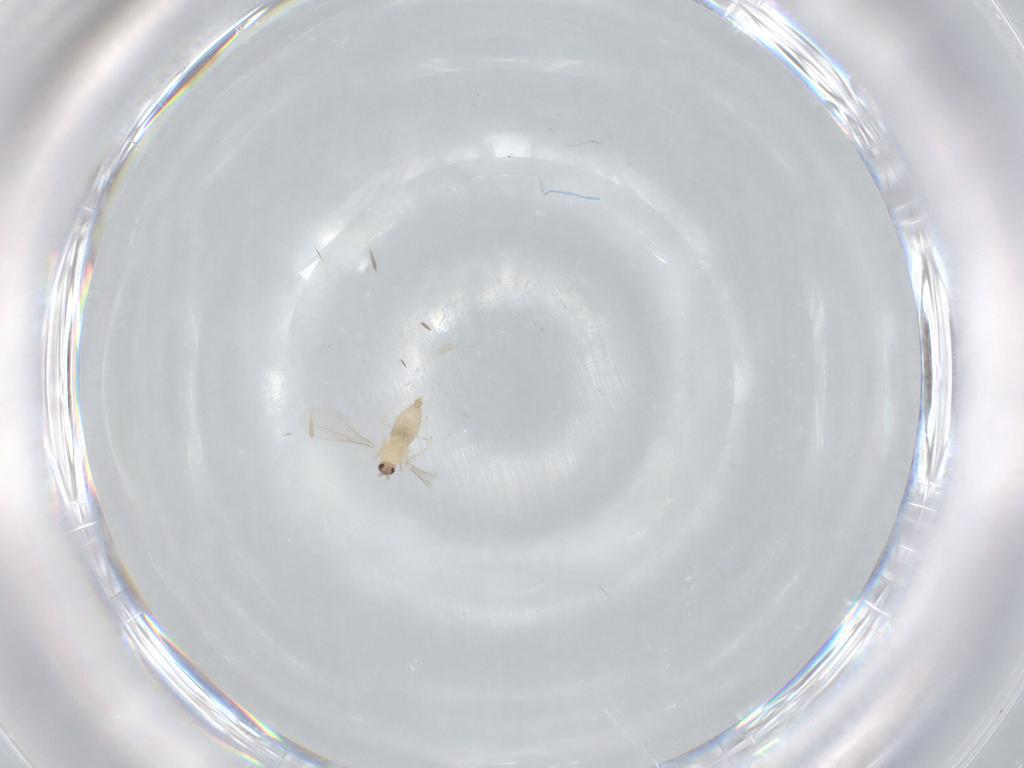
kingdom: Animalia
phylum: Arthropoda
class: Insecta
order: Diptera
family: Cecidomyiidae
